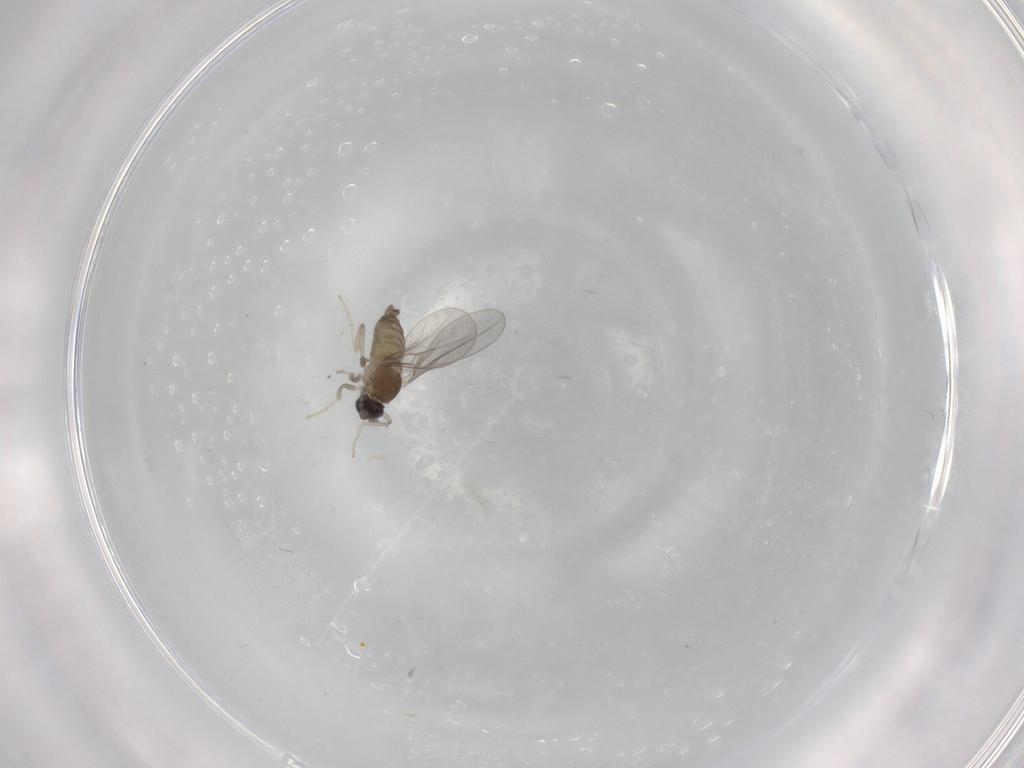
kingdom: Animalia
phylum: Arthropoda
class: Insecta
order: Diptera
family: Cecidomyiidae
